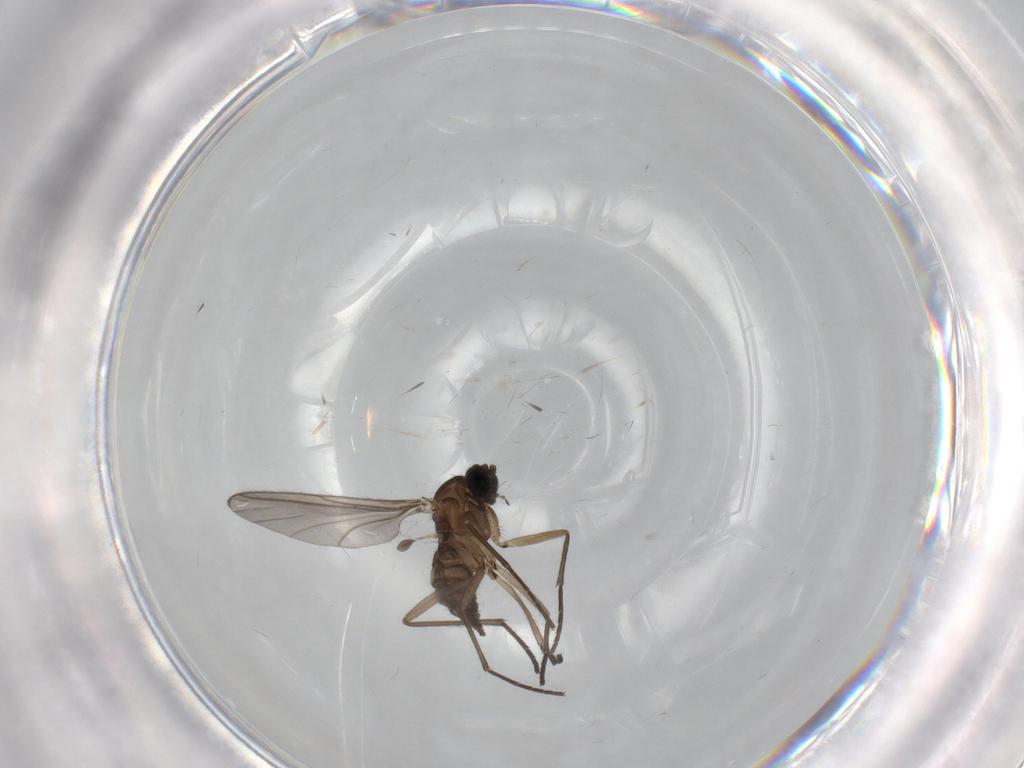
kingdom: Animalia
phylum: Arthropoda
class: Insecta
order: Diptera
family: Sciaridae
